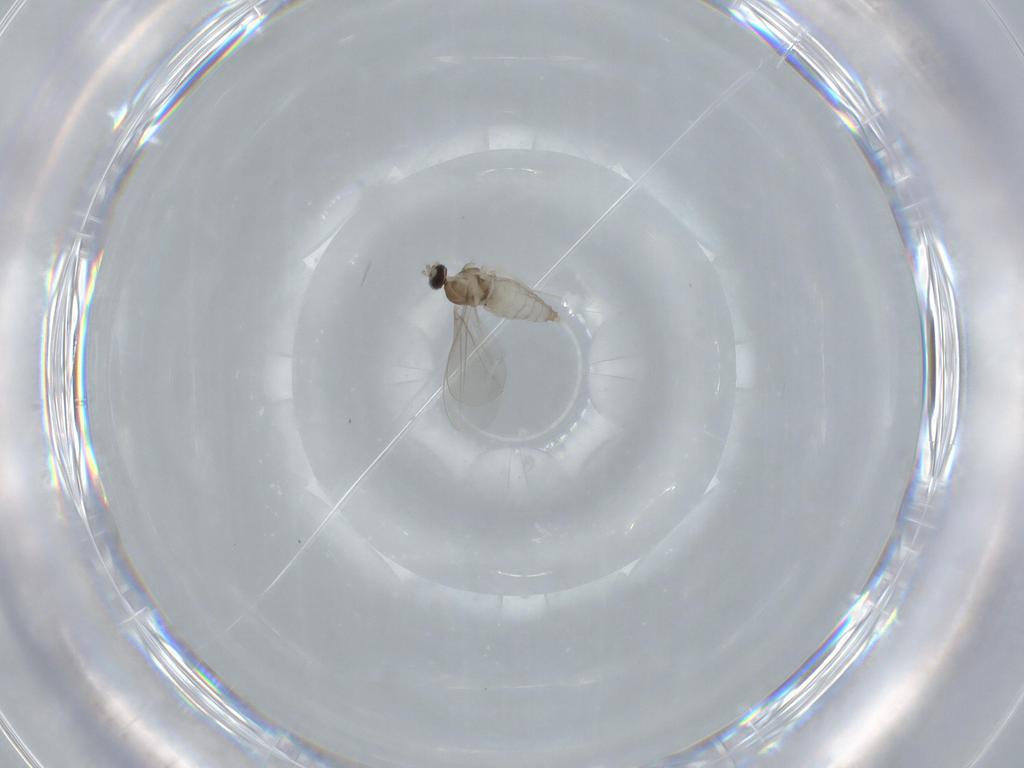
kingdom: Animalia
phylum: Arthropoda
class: Insecta
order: Diptera
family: Cecidomyiidae
